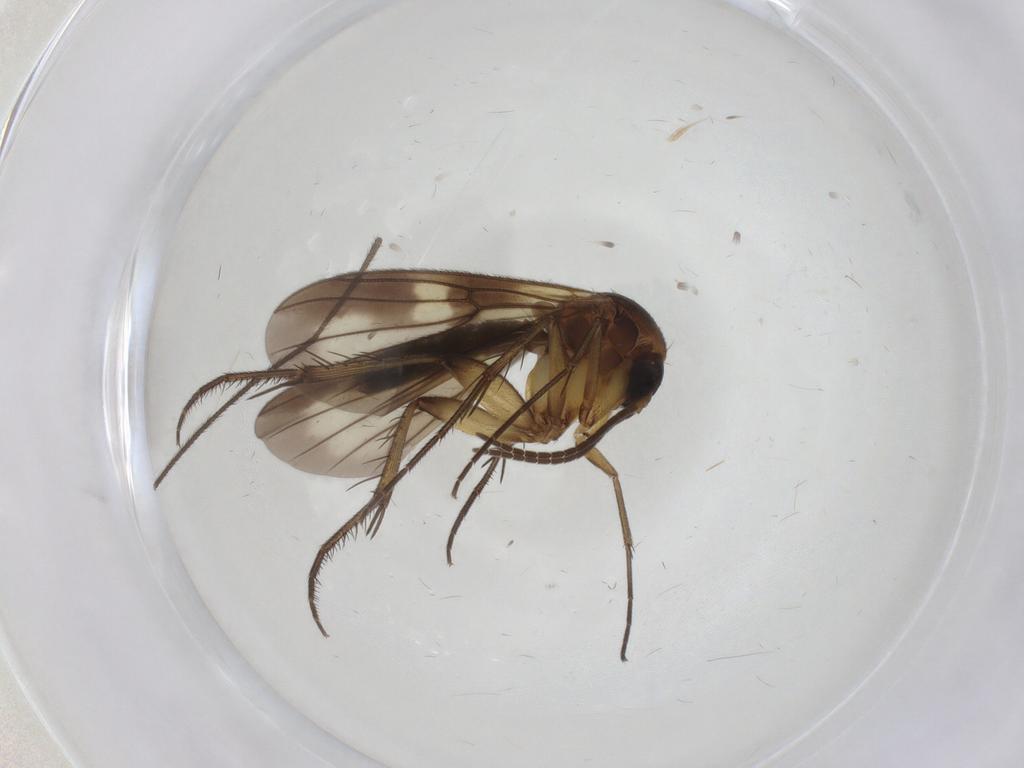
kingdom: Animalia
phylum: Arthropoda
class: Insecta
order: Diptera
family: Mycetophilidae
